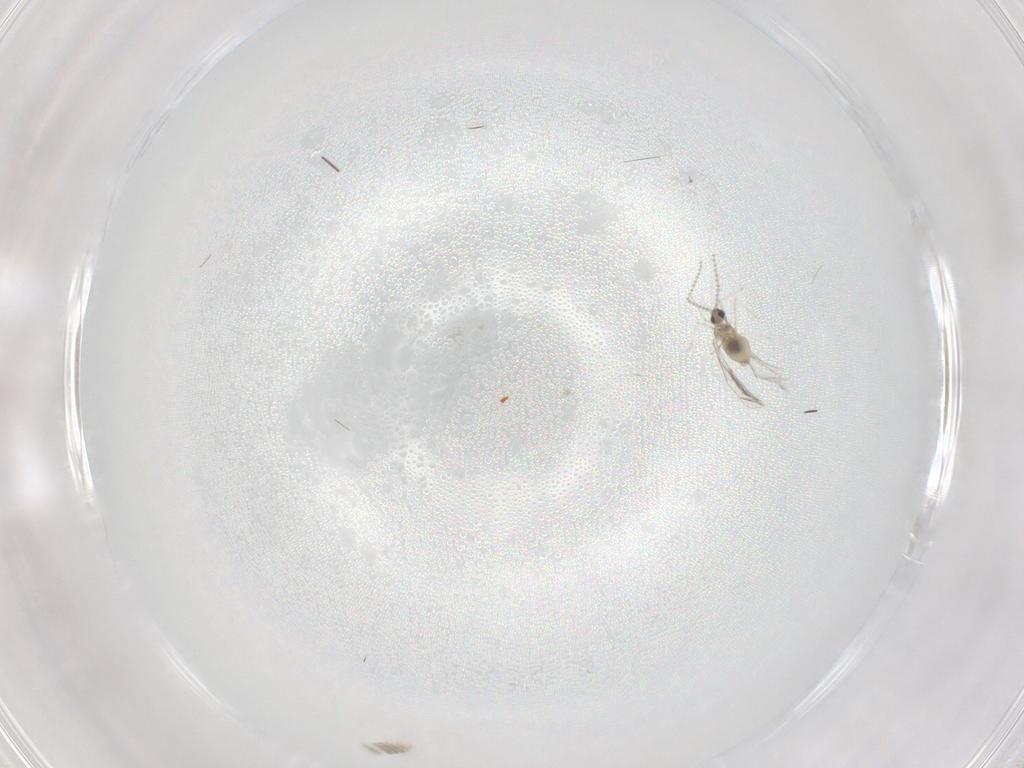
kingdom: Animalia
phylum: Arthropoda
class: Insecta
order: Diptera
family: Cecidomyiidae
